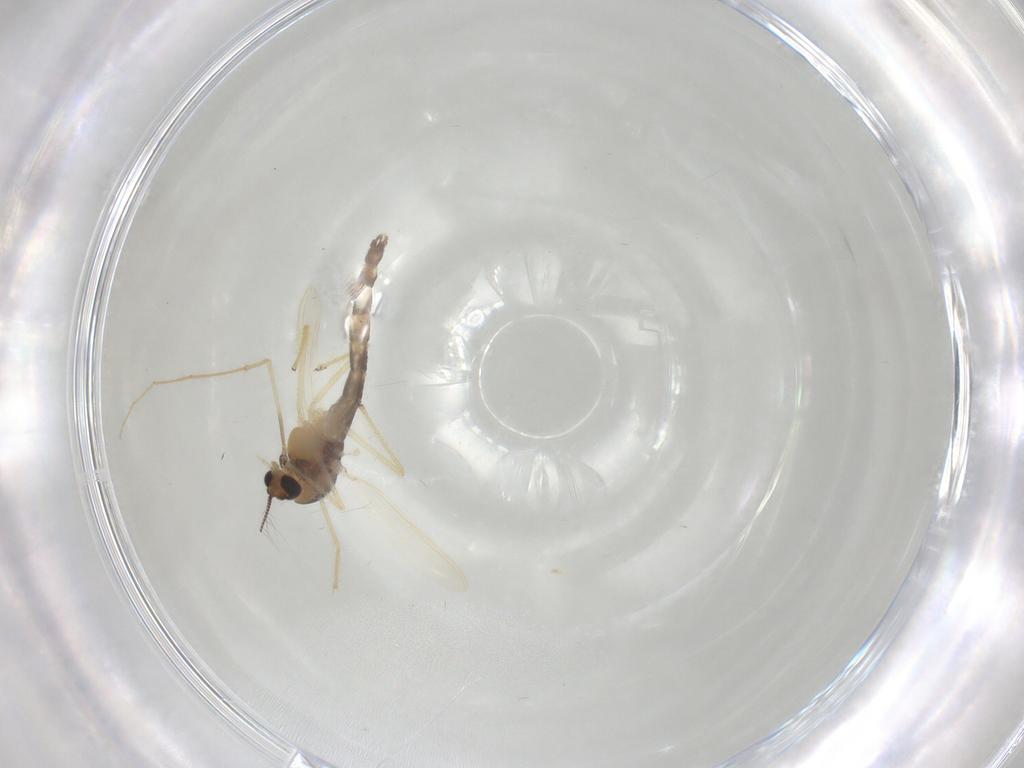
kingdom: Animalia
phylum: Arthropoda
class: Insecta
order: Diptera
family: Chironomidae
